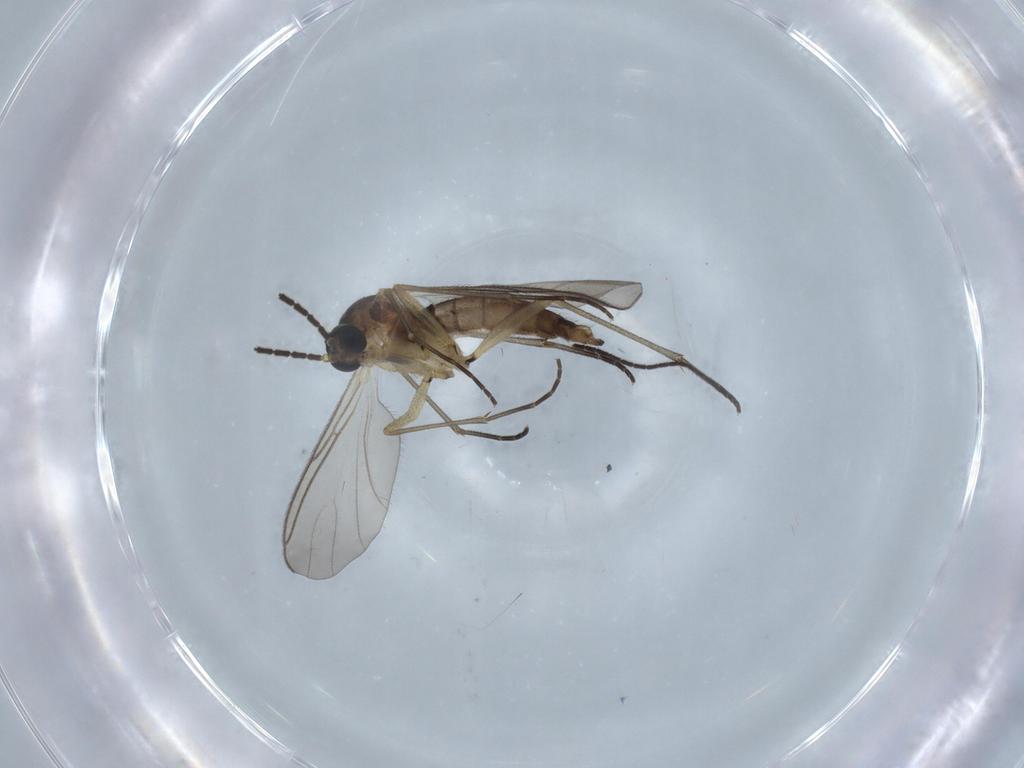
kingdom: Animalia
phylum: Arthropoda
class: Insecta
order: Diptera
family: Sciaridae
